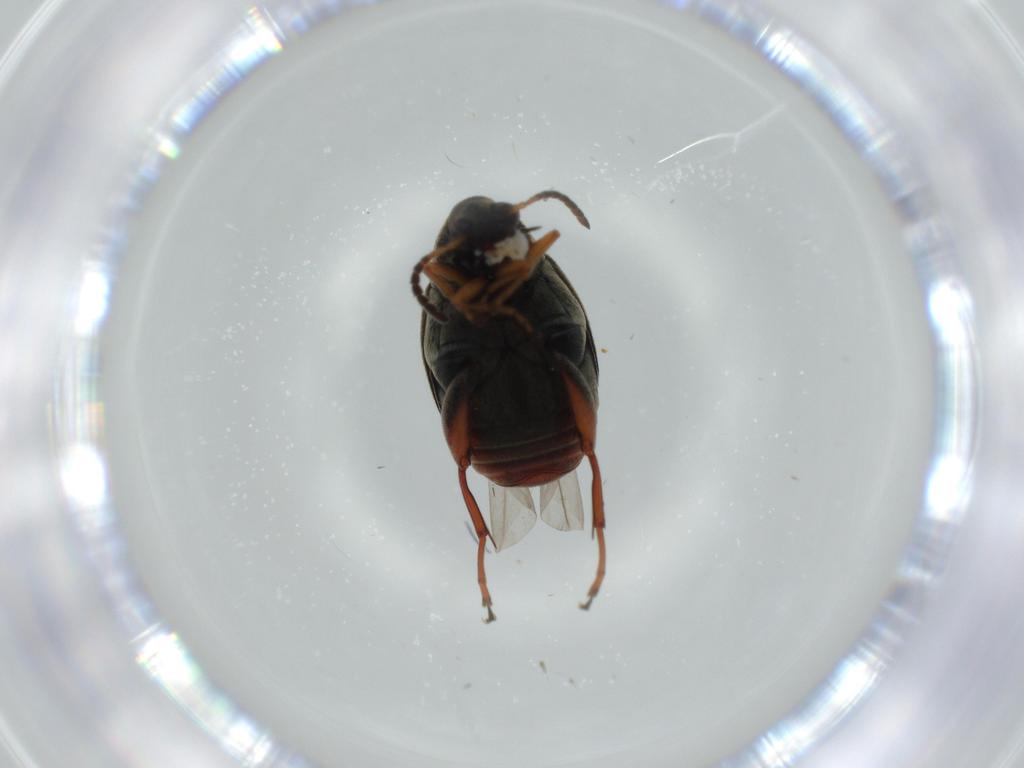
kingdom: Animalia
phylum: Arthropoda
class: Insecta
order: Coleoptera
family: Chrysomelidae
